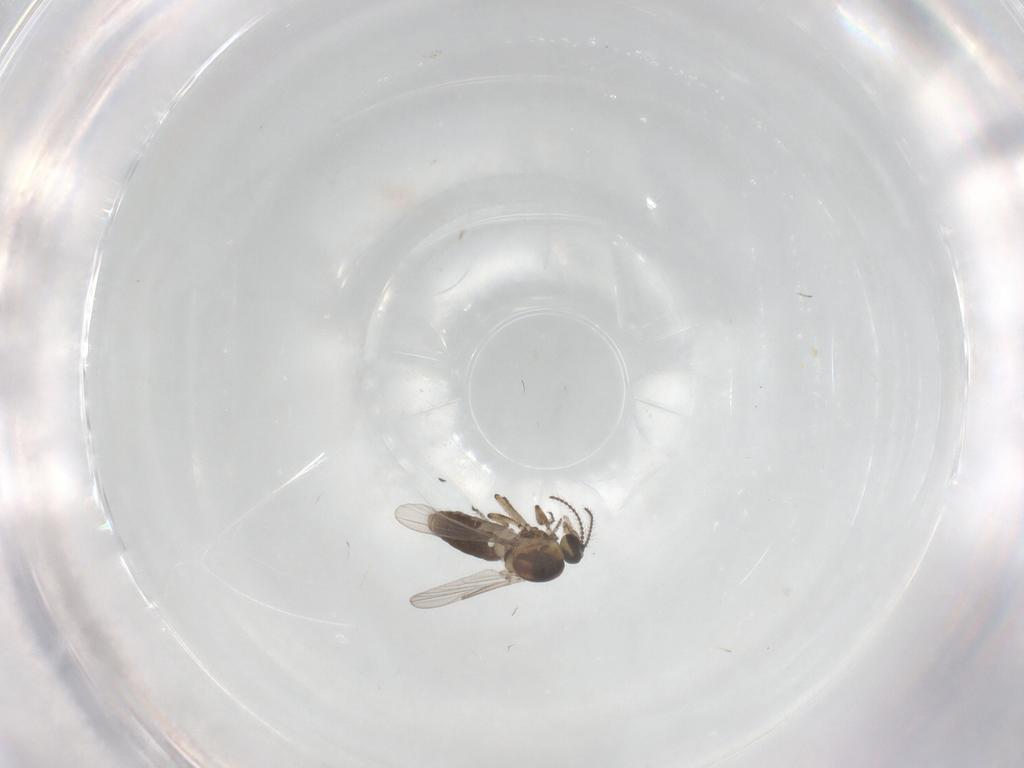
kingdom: Animalia
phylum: Arthropoda
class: Insecta
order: Diptera
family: Ceratopogonidae
